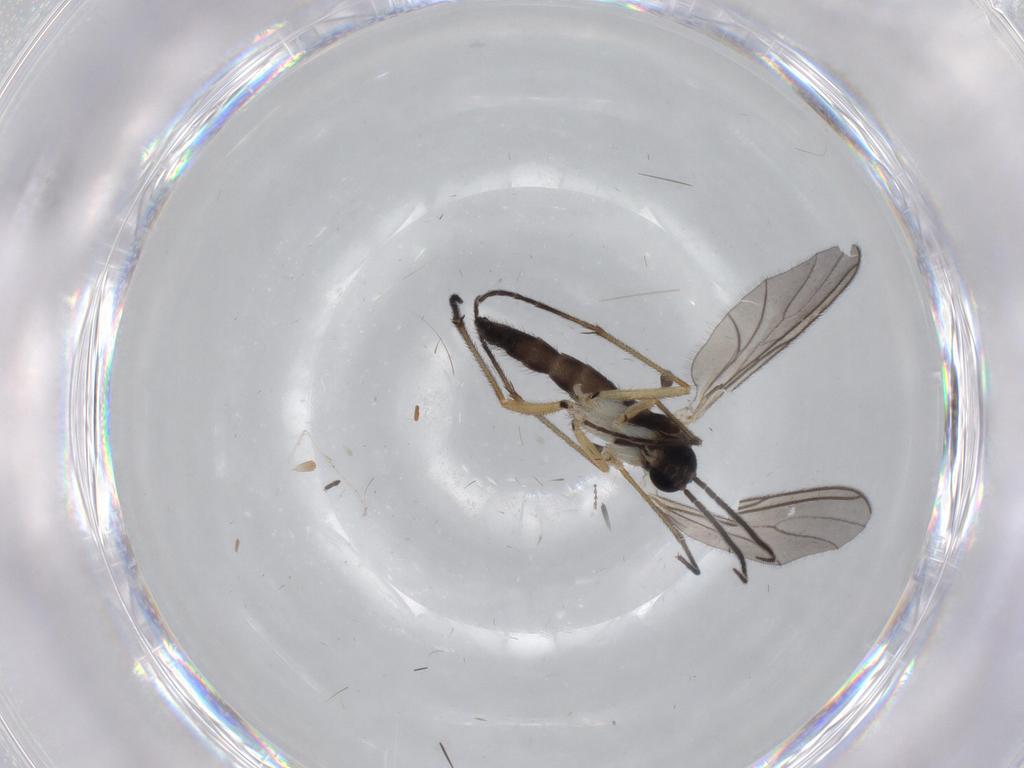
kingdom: Animalia
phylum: Arthropoda
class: Insecta
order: Diptera
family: Sciaridae
